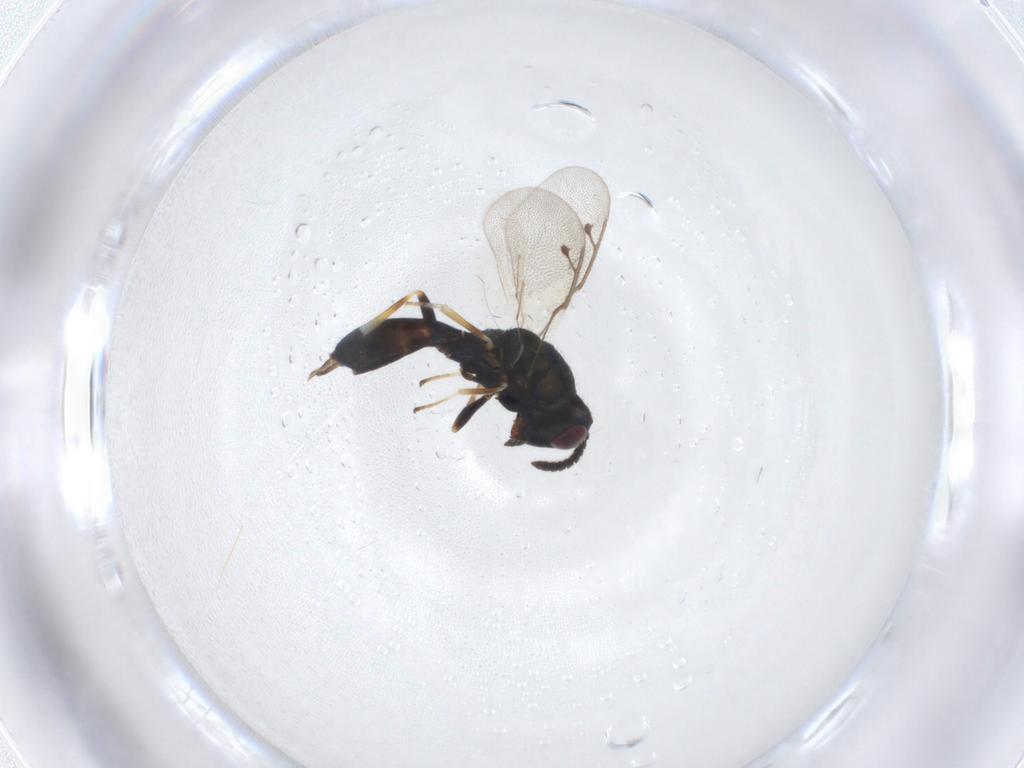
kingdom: Animalia
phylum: Arthropoda
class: Insecta
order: Hymenoptera
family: Pteromalidae
